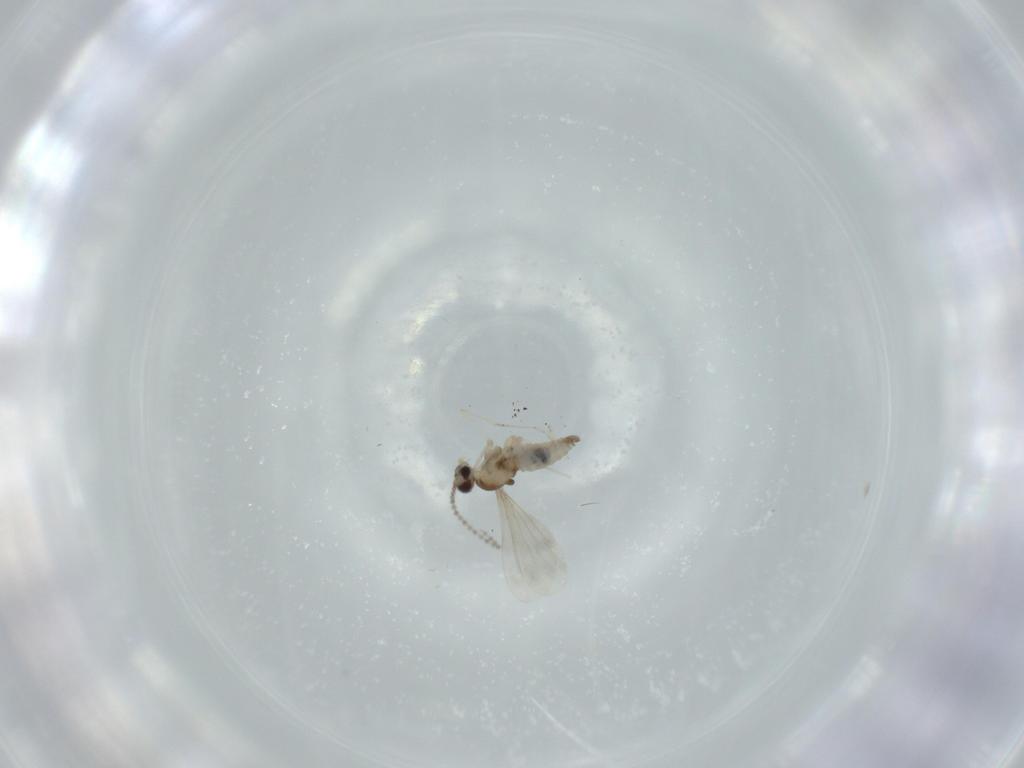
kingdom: Animalia
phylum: Arthropoda
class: Insecta
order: Diptera
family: Cecidomyiidae
